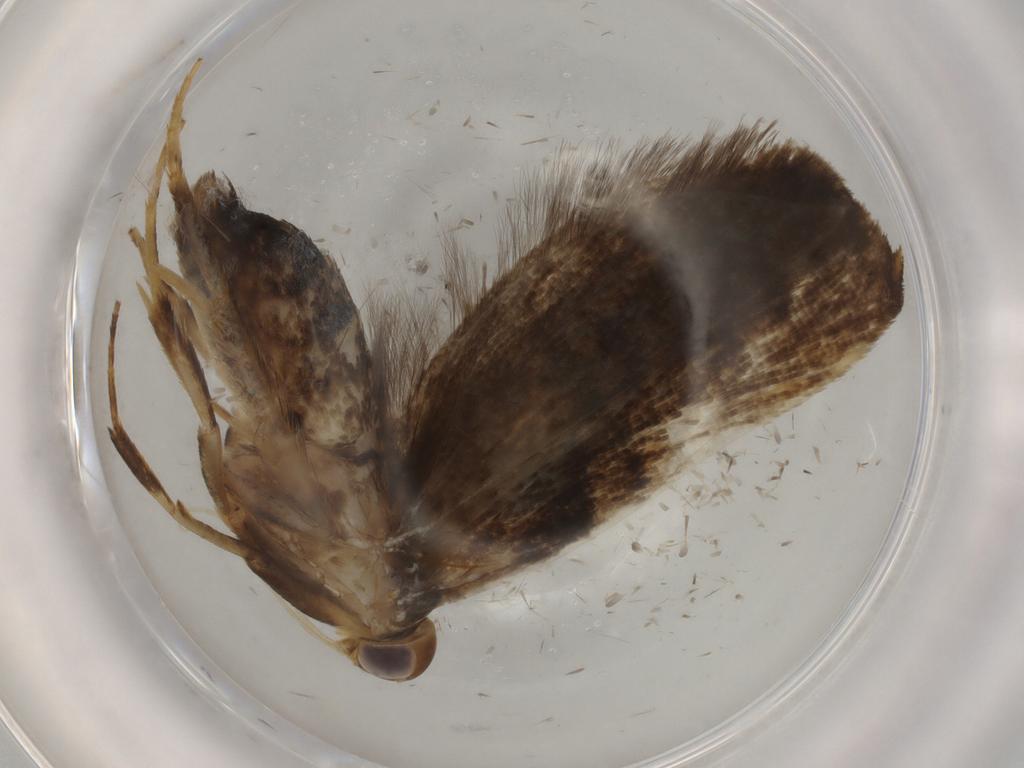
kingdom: Animalia
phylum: Arthropoda
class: Insecta
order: Lepidoptera
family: Gelechiidae
